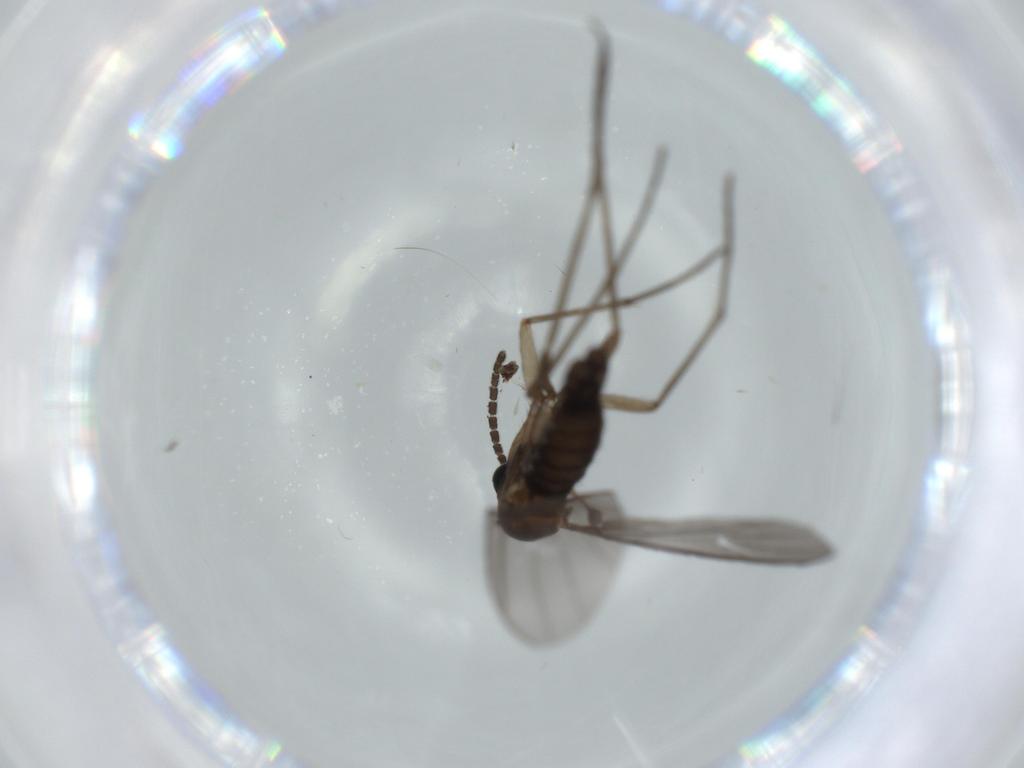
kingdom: Animalia
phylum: Arthropoda
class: Insecta
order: Diptera
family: Sciaridae
